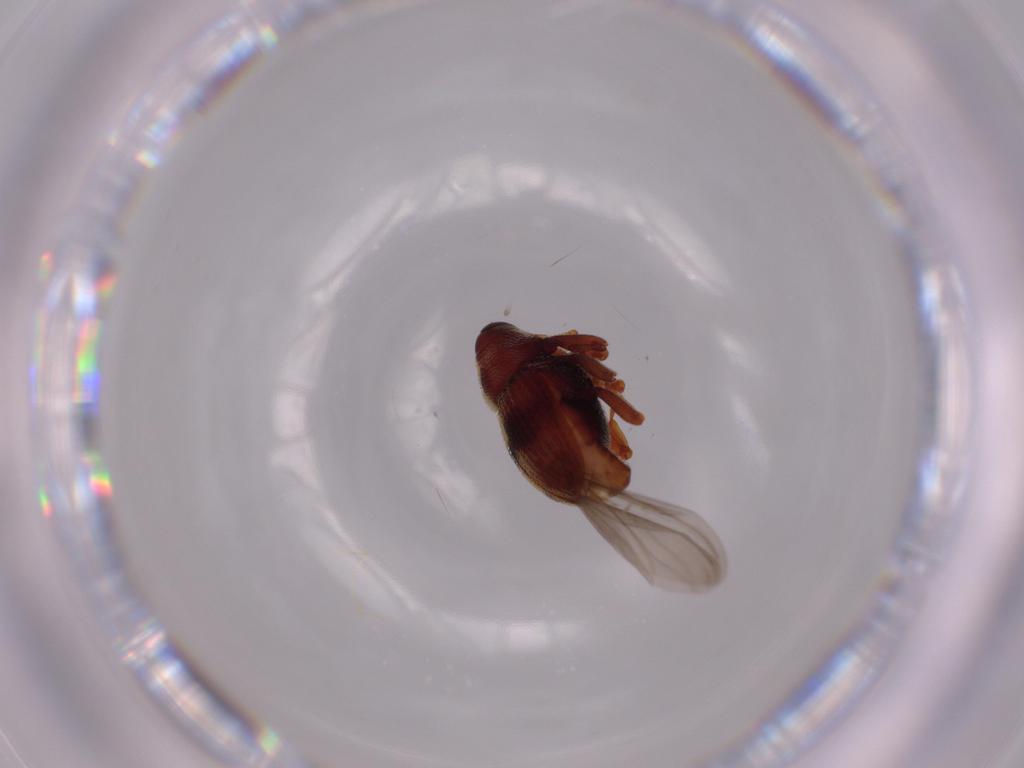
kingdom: Animalia
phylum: Arthropoda
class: Insecta
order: Coleoptera
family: Curculionidae
